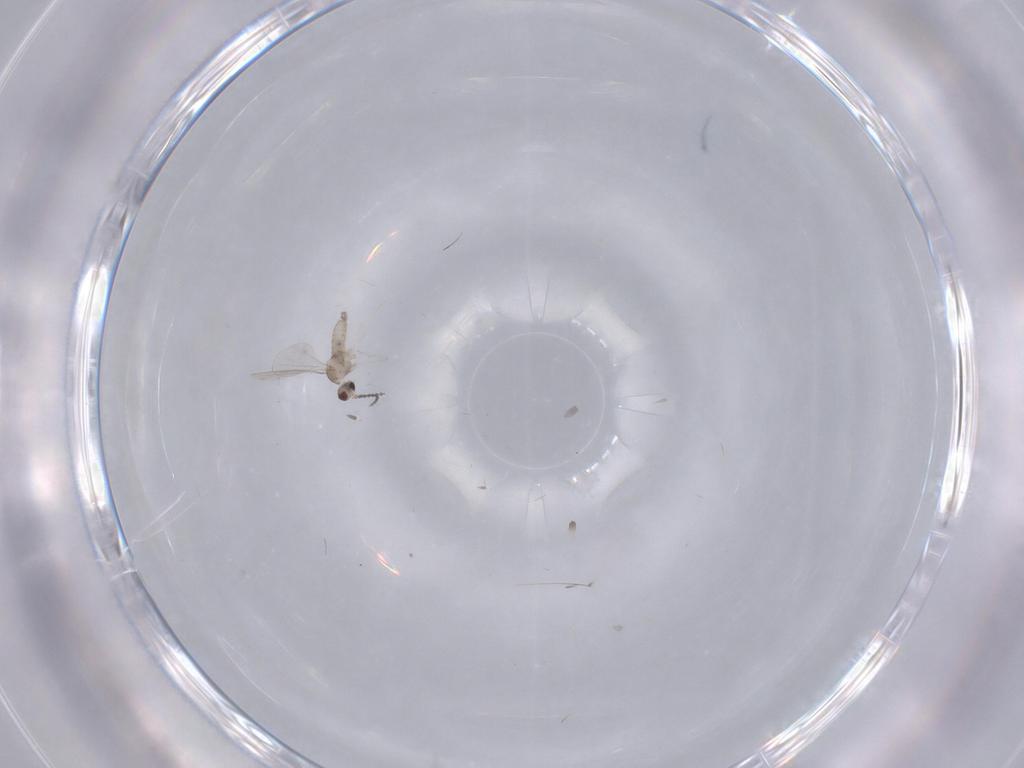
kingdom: Animalia
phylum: Arthropoda
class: Insecta
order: Diptera
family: Cecidomyiidae
